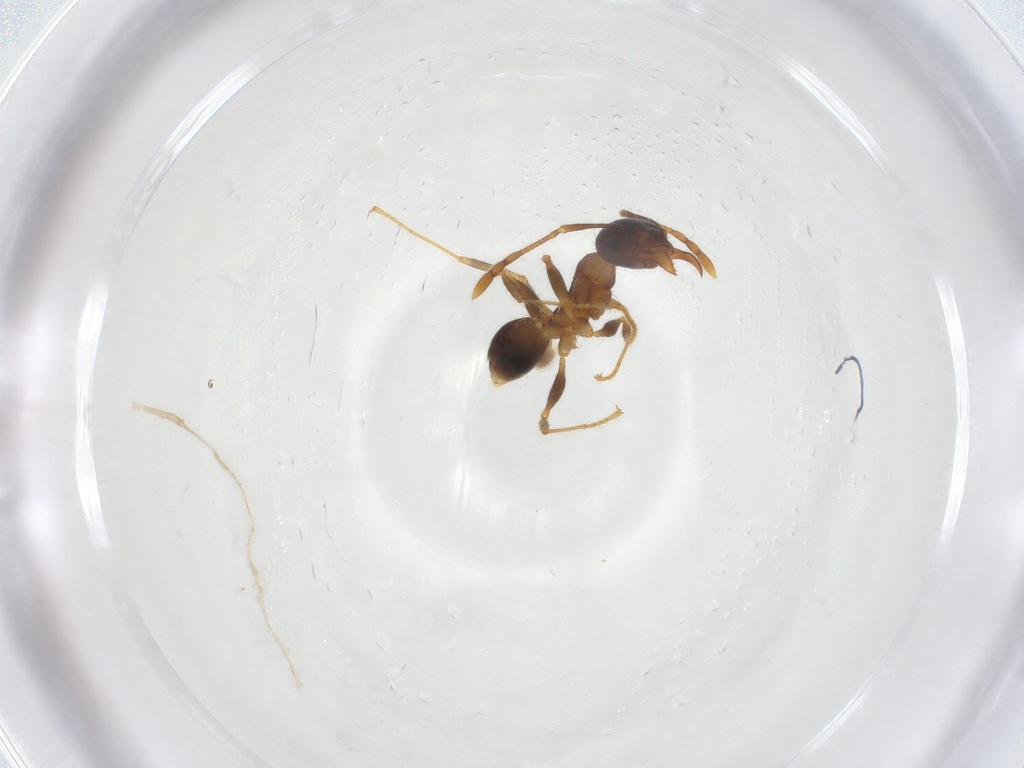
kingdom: Animalia
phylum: Arthropoda
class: Insecta
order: Hymenoptera
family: Formicidae
